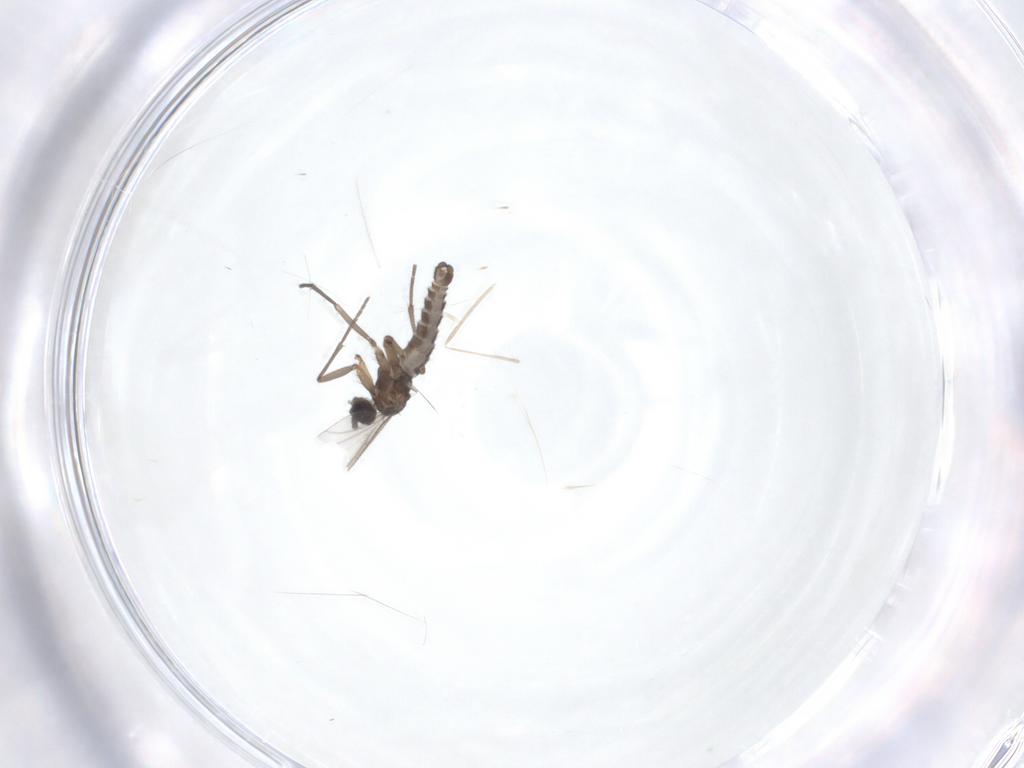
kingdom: Animalia
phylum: Arthropoda
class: Insecta
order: Diptera
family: Cecidomyiidae
